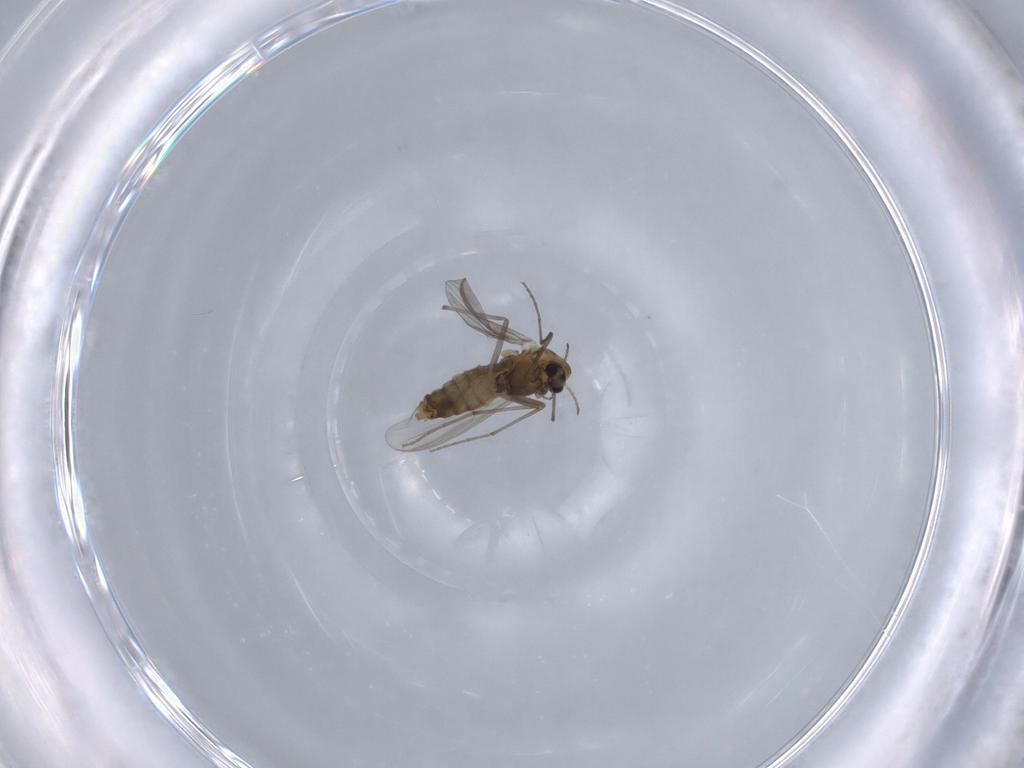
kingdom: Animalia
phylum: Arthropoda
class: Insecta
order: Diptera
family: Chironomidae
